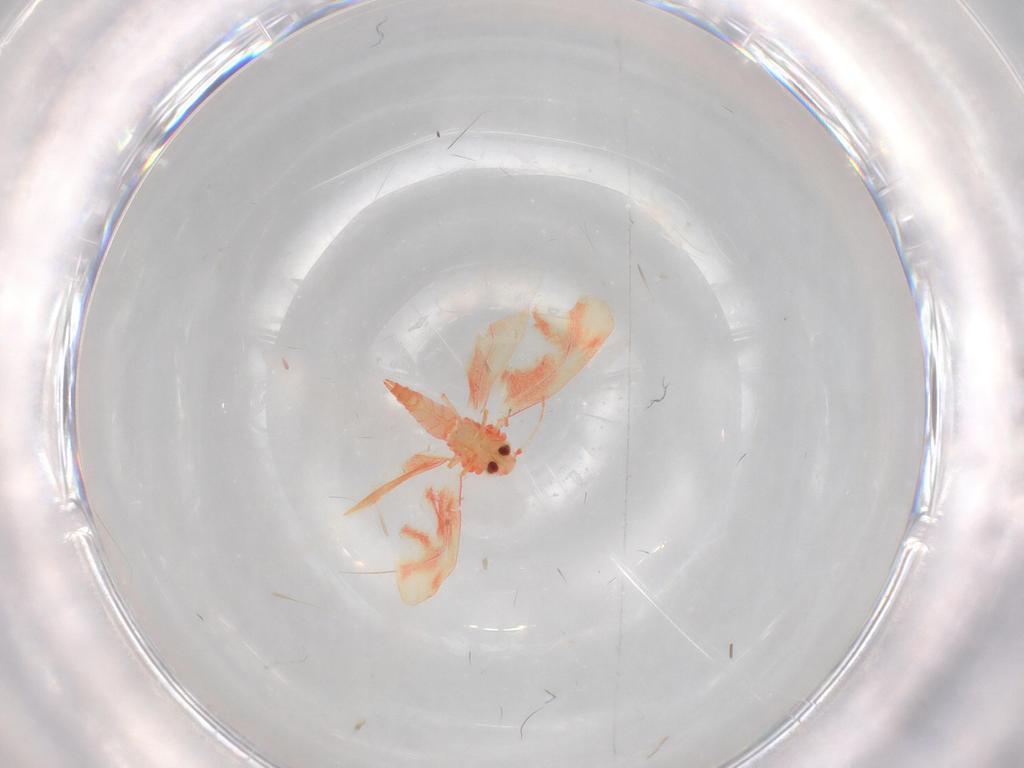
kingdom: Animalia
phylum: Arthropoda
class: Insecta
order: Hemiptera
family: Aleyrodidae
